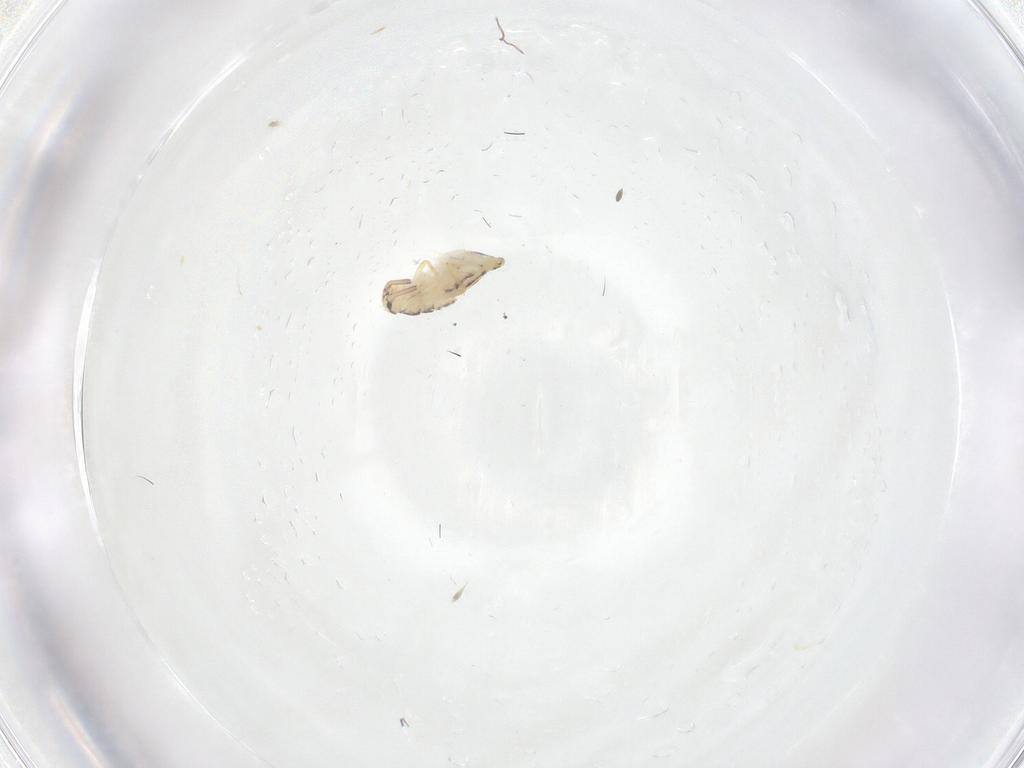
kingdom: Animalia
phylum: Arthropoda
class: Collembola
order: Entomobryomorpha
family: Entomobryidae
